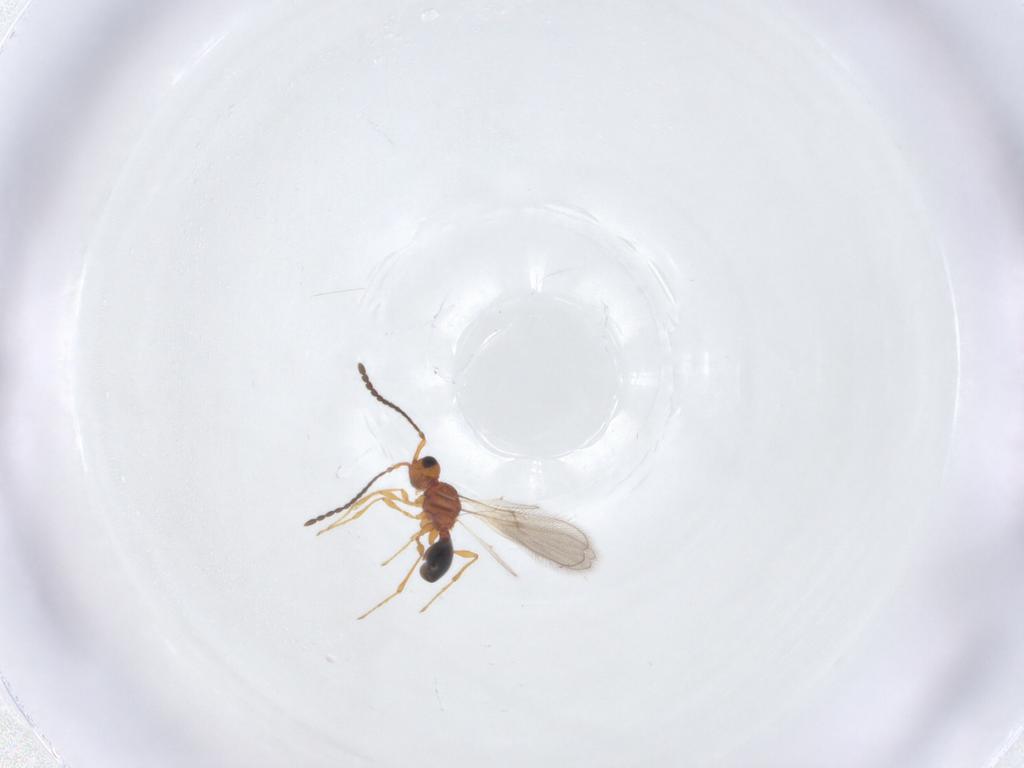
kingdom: Animalia
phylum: Arthropoda
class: Insecta
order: Hymenoptera
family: Diapriidae
